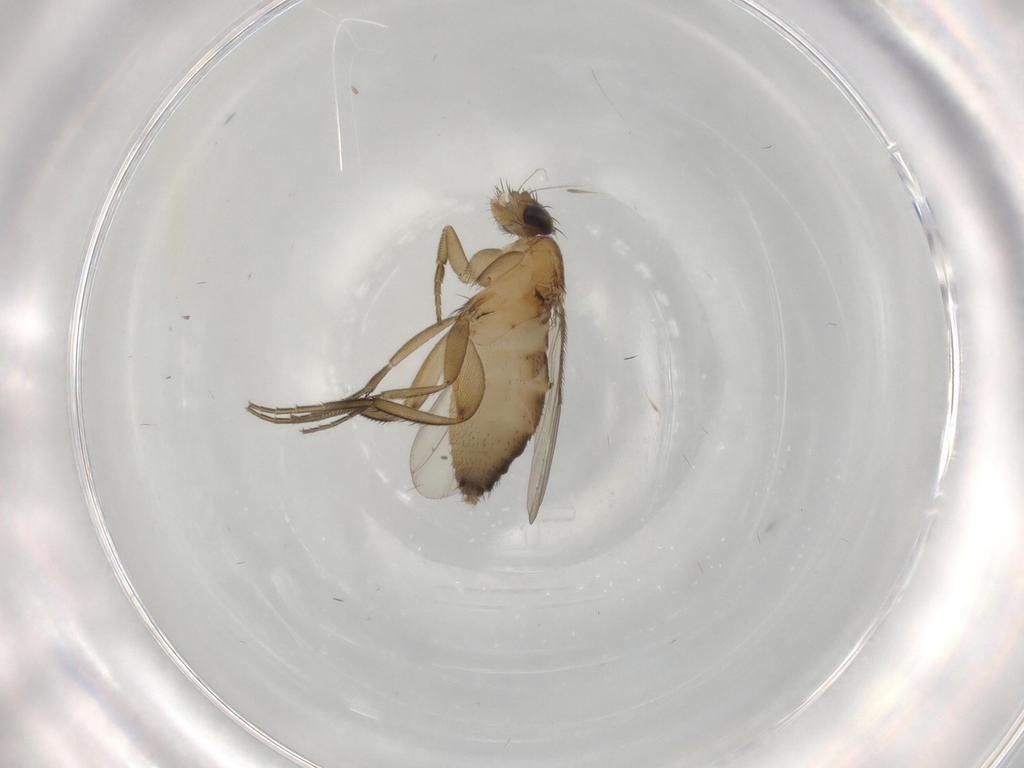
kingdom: Animalia
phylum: Arthropoda
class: Insecta
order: Diptera
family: Phoridae
